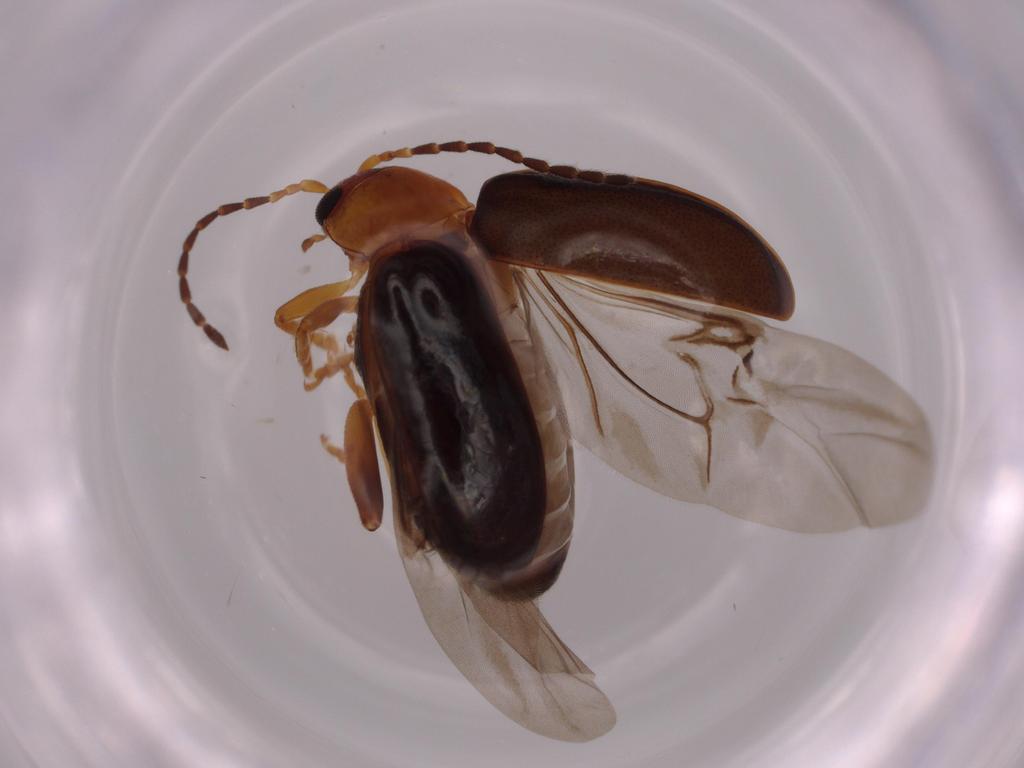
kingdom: Animalia
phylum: Arthropoda
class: Insecta
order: Coleoptera
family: Chrysomelidae
